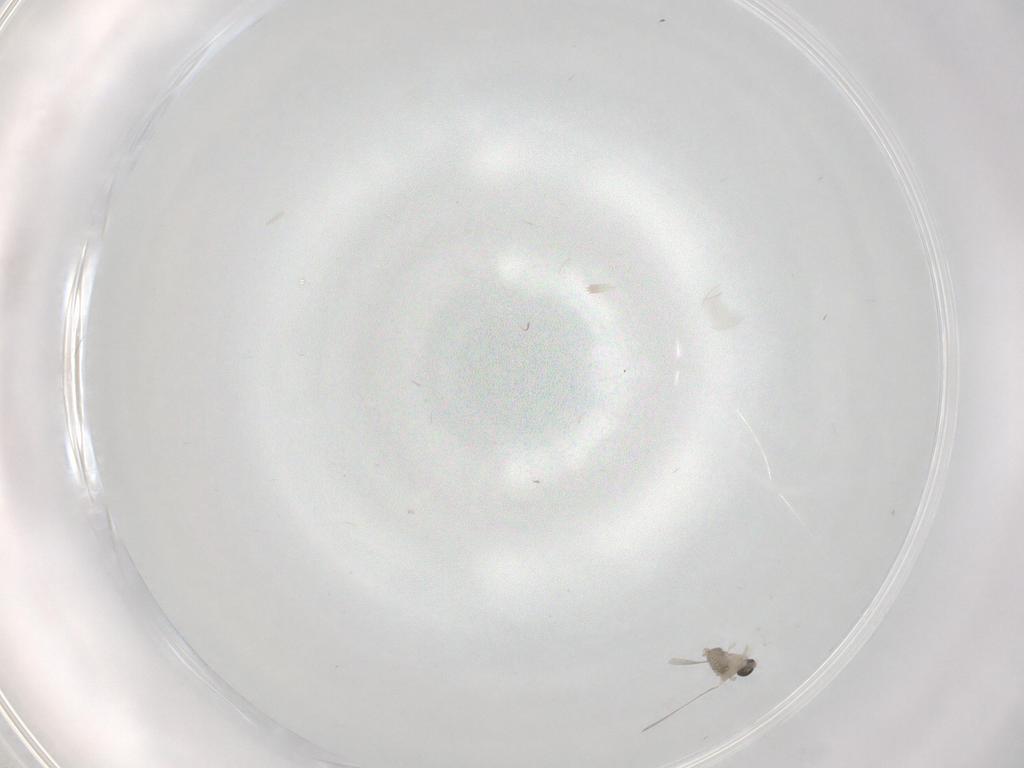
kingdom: Animalia
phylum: Arthropoda
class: Insecta
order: Diptera
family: Cecidomyiidae
